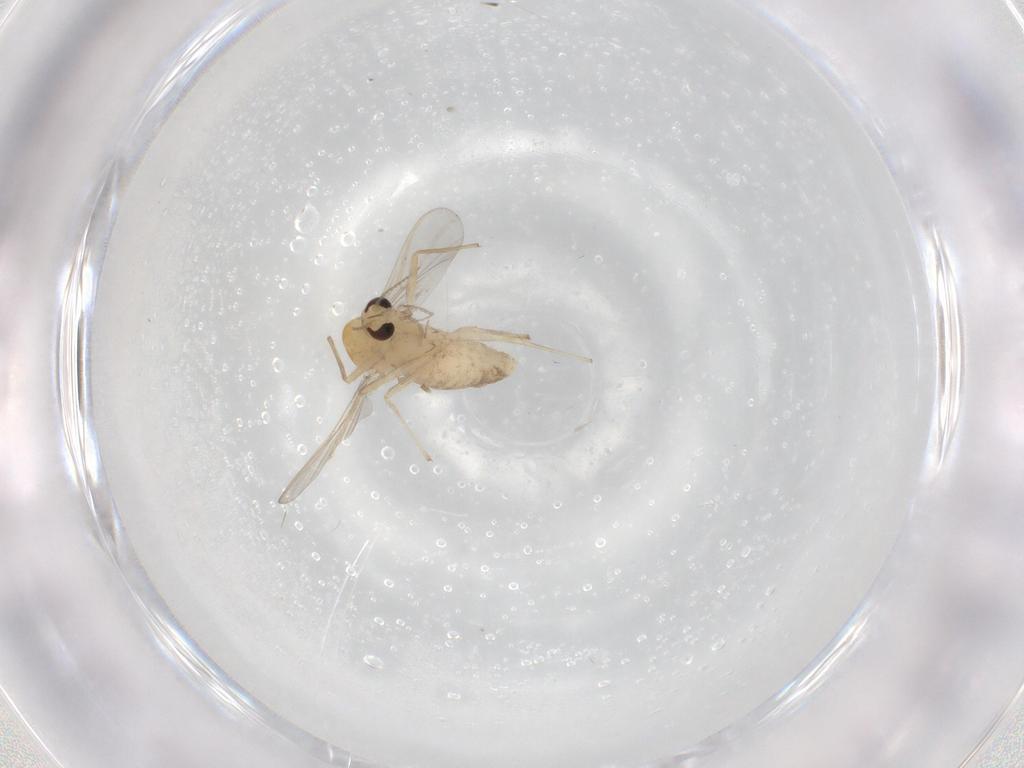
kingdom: Animalia
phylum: Arthropoda
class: Insecta
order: Diptera
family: Chironomidae
